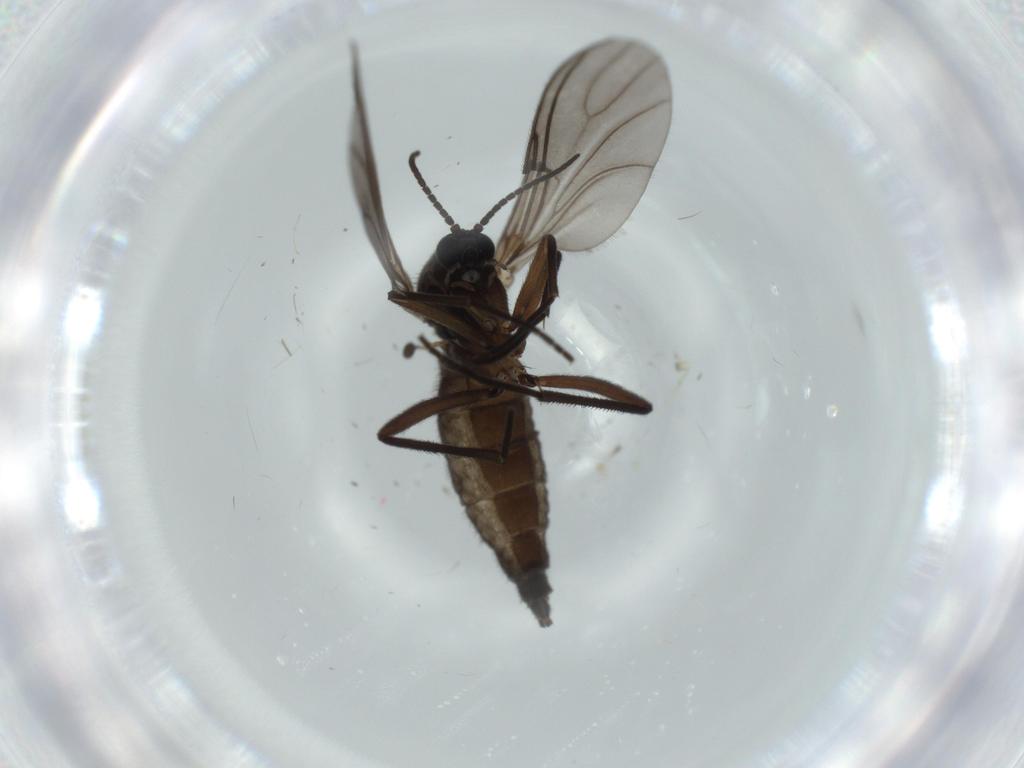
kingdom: Animalia
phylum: Arthropoda
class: Insecta
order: Diptera
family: Sciaridae
